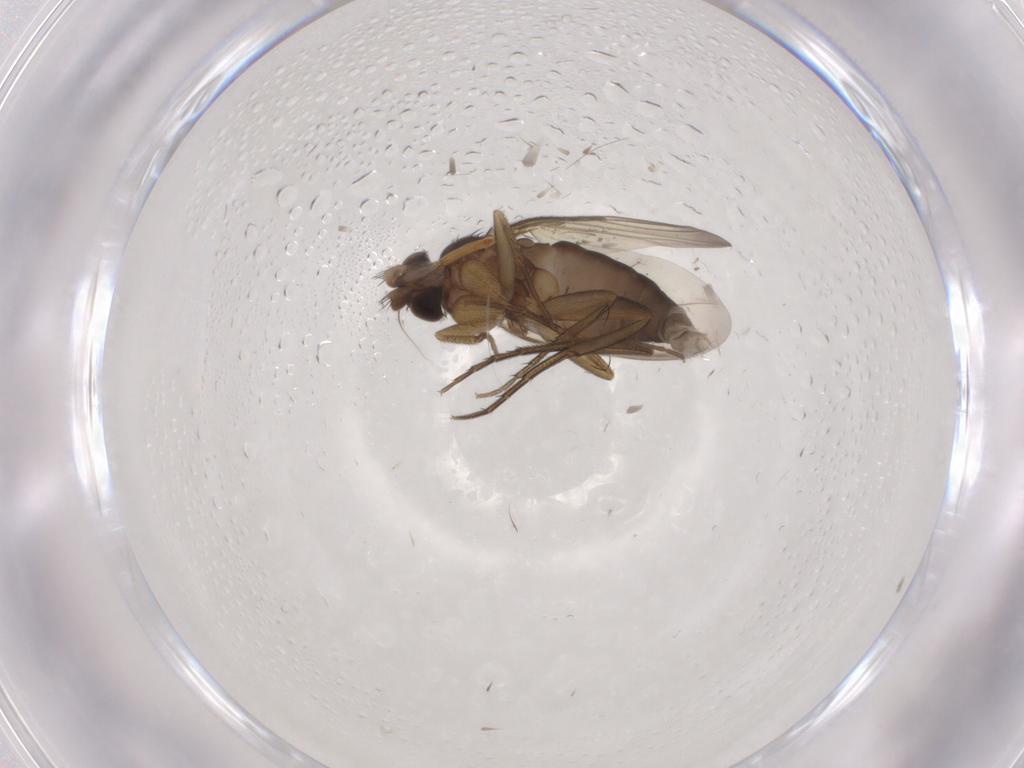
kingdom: Animalia
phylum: Arthropoda
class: Insecta
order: Diptera
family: Phoridae
